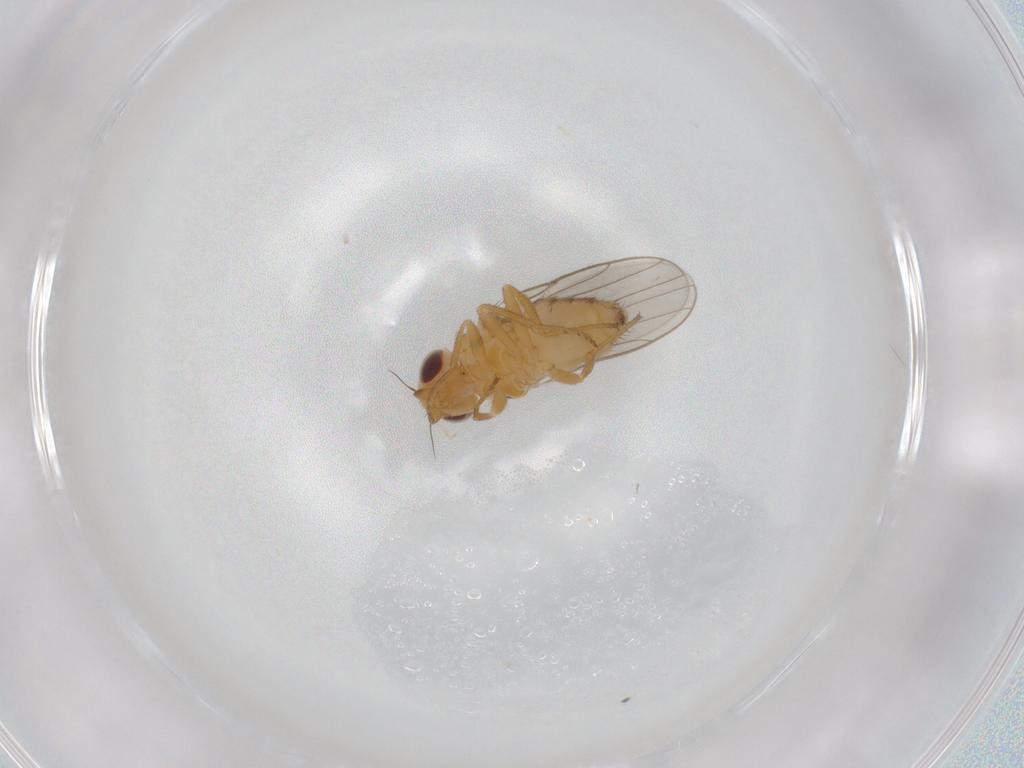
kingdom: Animalia
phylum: Arthropoda
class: Insecta
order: Diptera
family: Chloropidae
